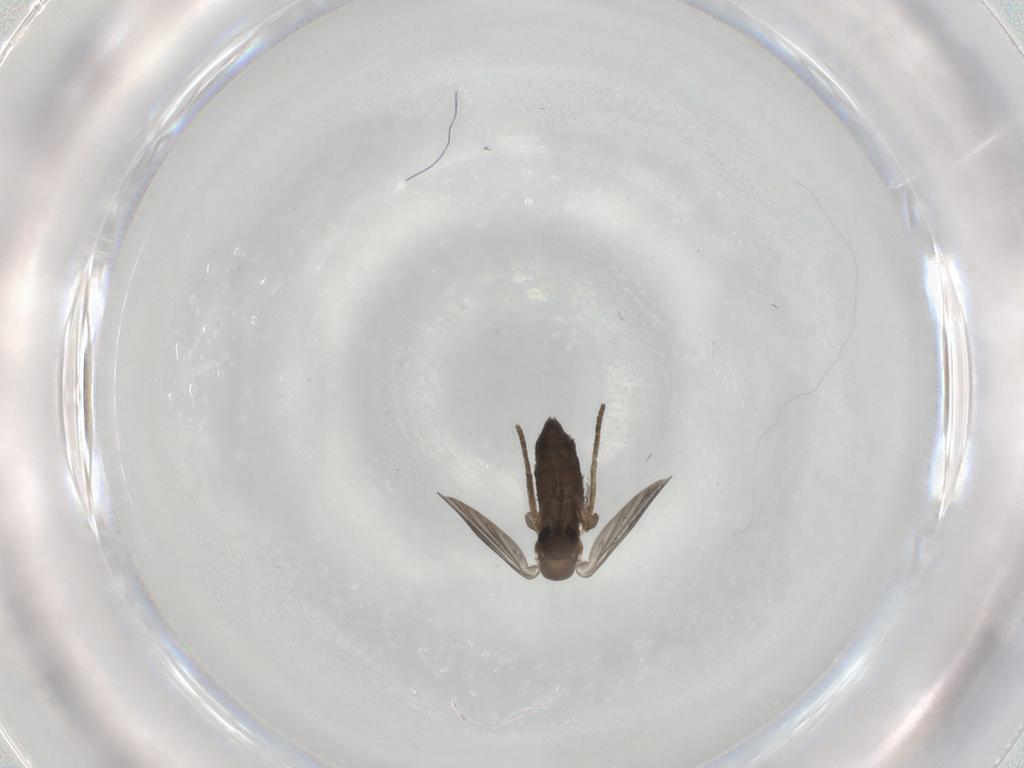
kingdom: Animalia
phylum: Arthropoda
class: Insecta
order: Diptera
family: Cecidomyiidae
